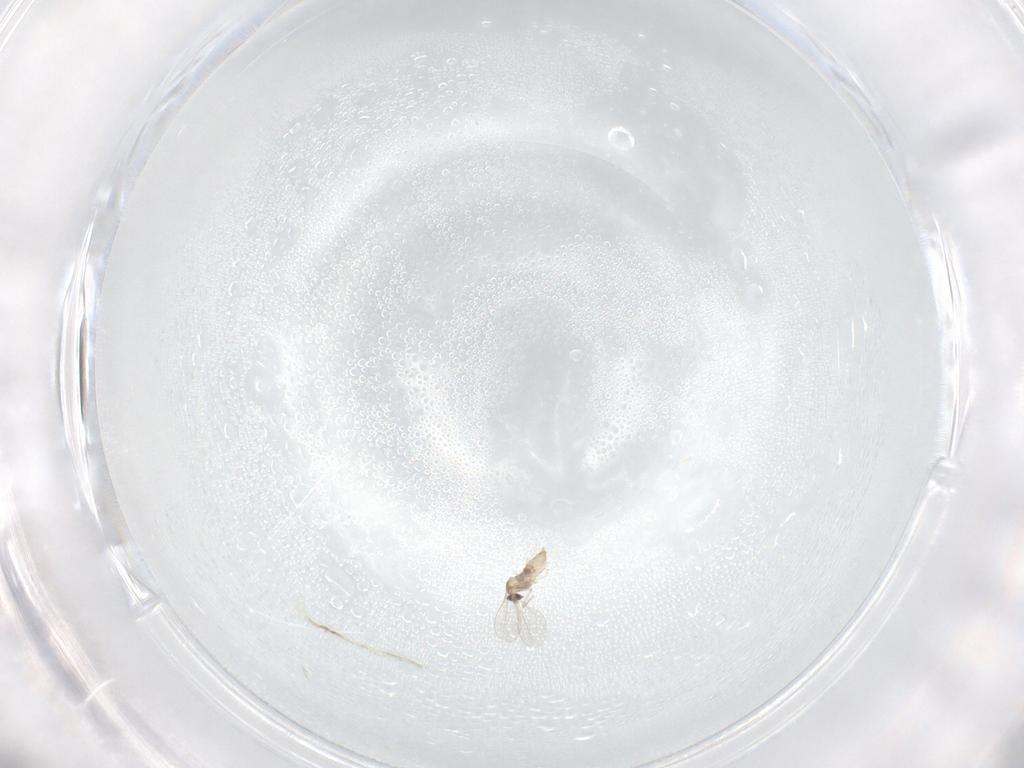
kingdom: Animalia
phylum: Arthropoda
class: Insecta
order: Diptera
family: Cecidomyiidae
